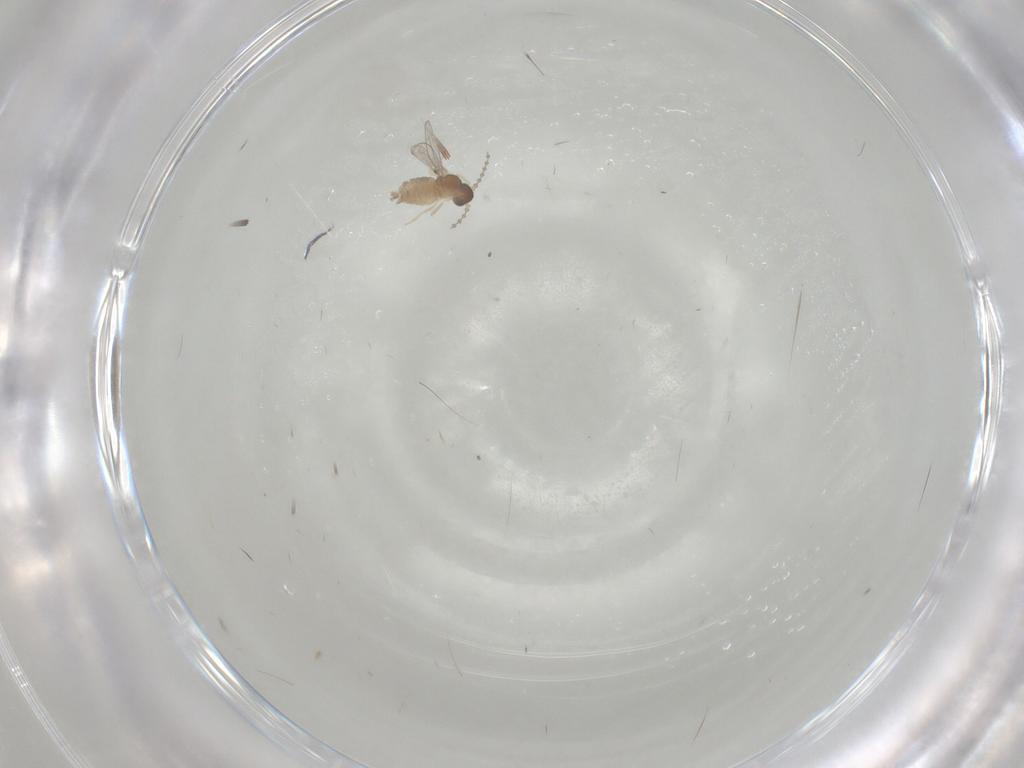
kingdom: Animalia
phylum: Arthropoda
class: Insecta
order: Diptera
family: Cecidomyiidae
